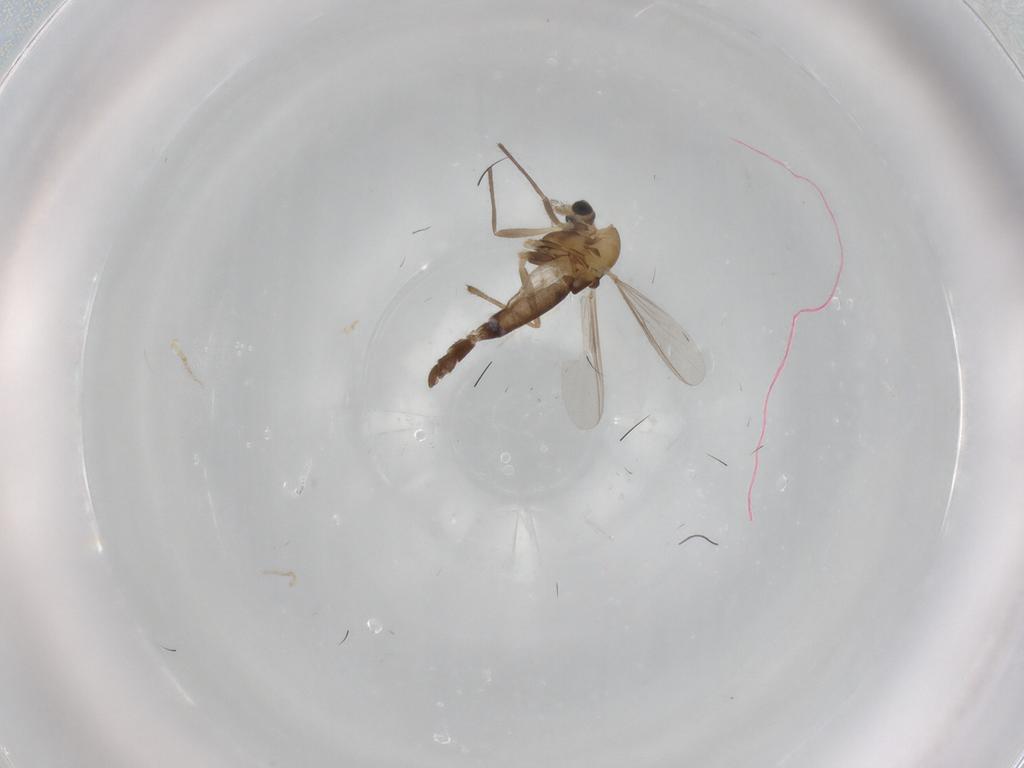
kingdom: Animalia
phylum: Arthropoda
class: Insecta
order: Diptera
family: Chironomidae
